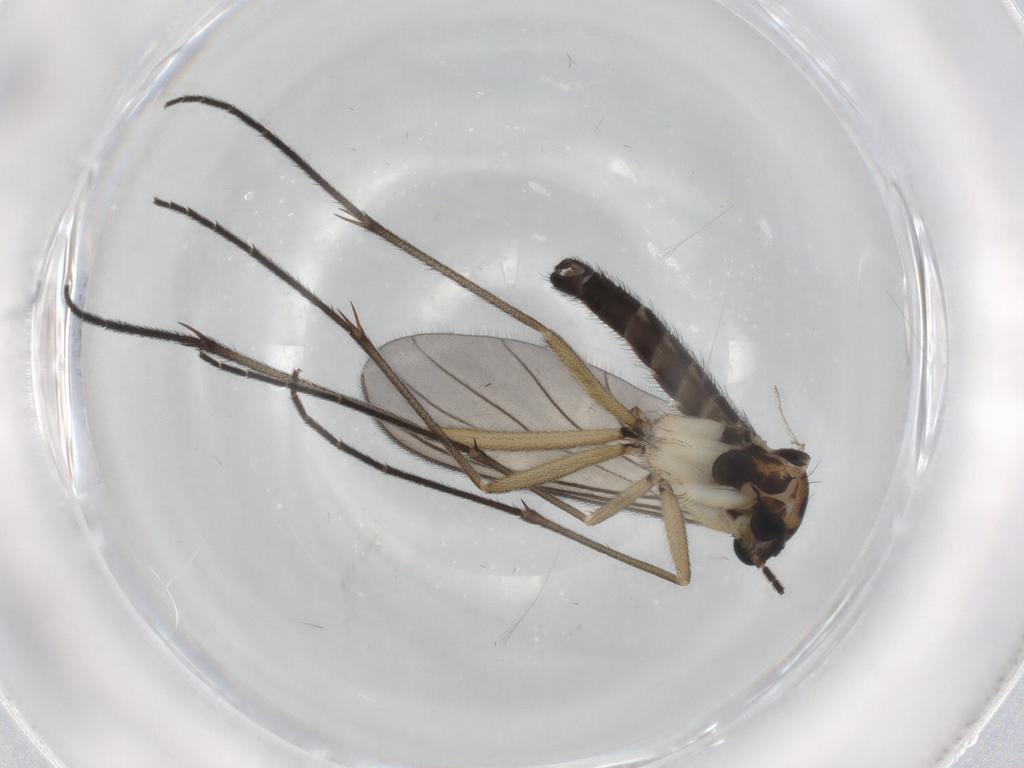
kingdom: Animalia
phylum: Arthropoda
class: Insecta
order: Diptera
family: Sciaridae
